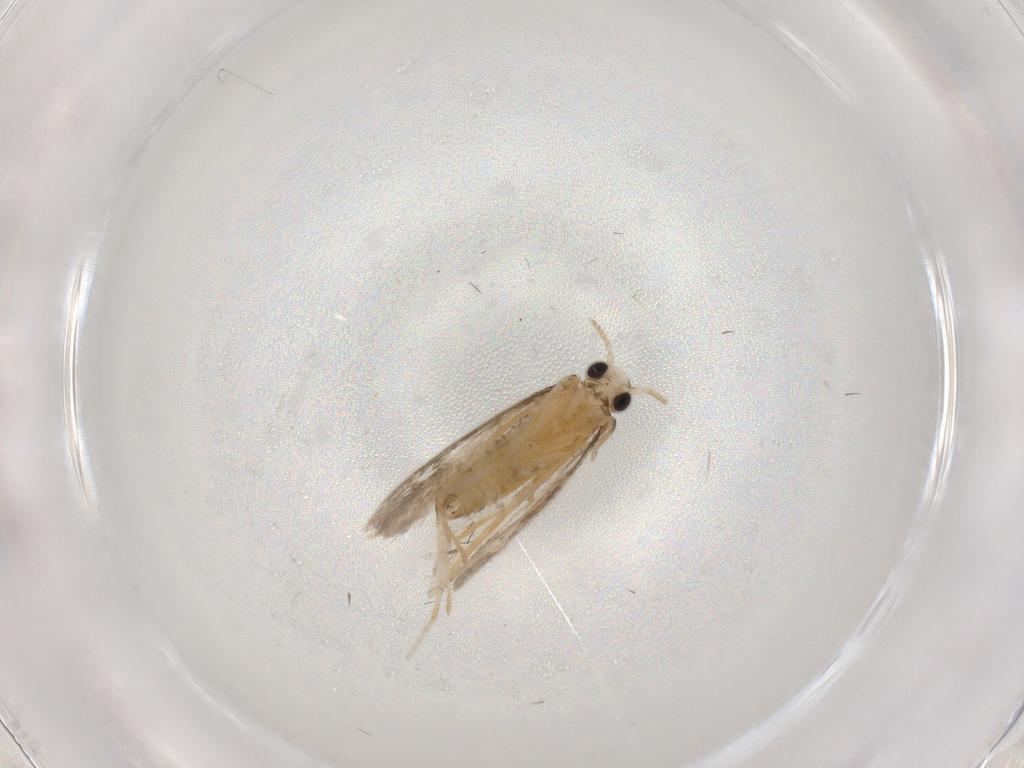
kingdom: Animalia
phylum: Arthropoda
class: Insecta
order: Lepidoptera
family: Psychidae
